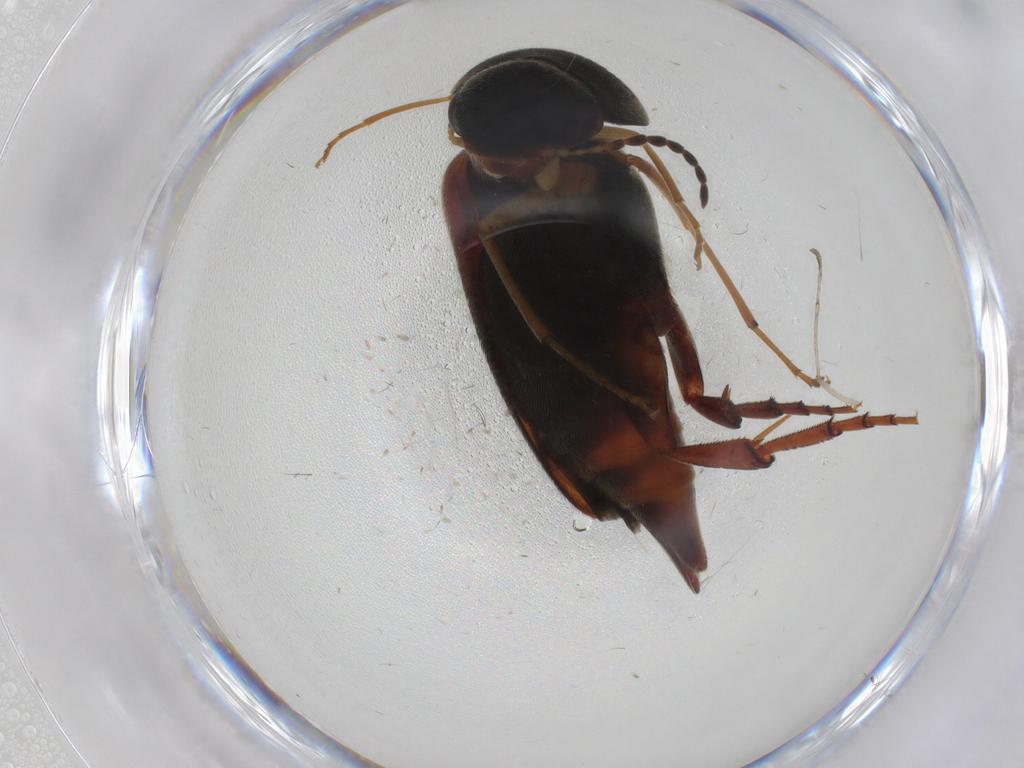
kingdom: Animalia
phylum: Arthropoda
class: Insecta
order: Coleoptera
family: Mordellidae
